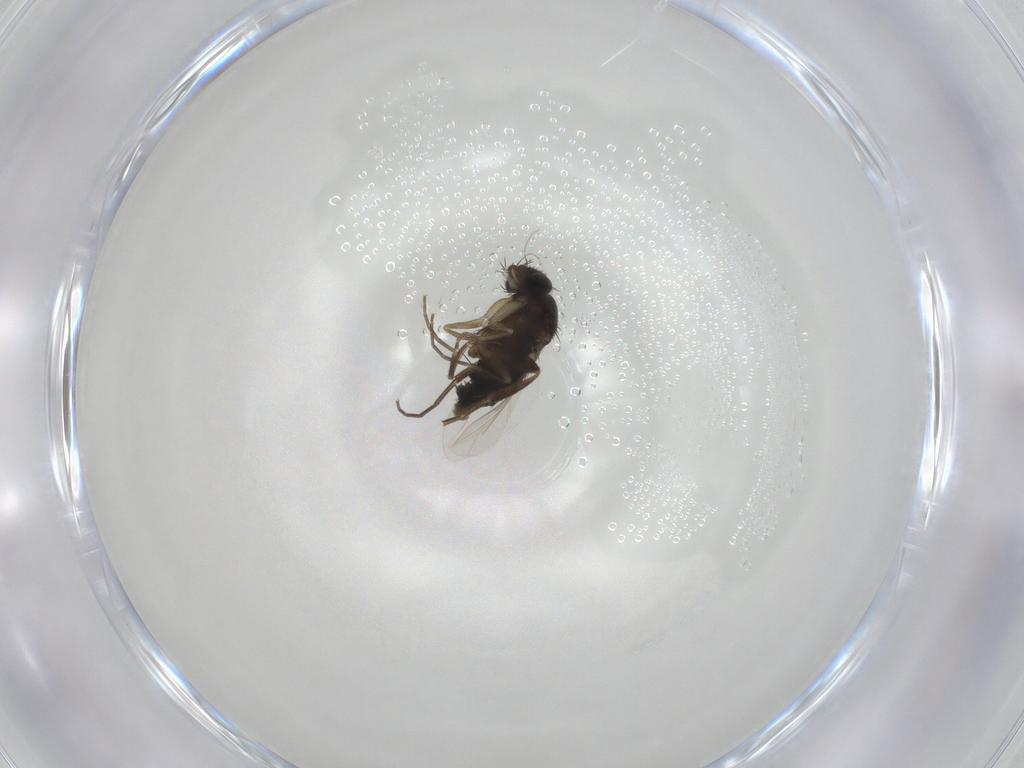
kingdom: Animalia
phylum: Arthropoda
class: Insecta
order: Diptera
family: Phoridae
